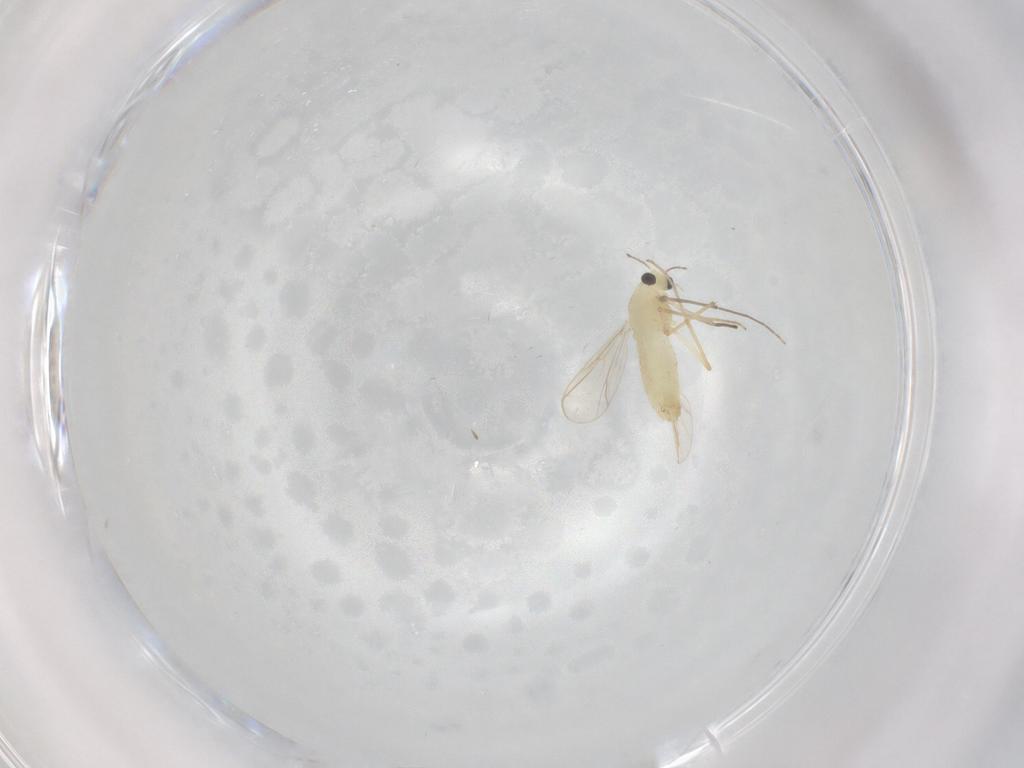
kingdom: Animalia
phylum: Arthropoda
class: Insecta
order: Diptera
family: Chironomidae
